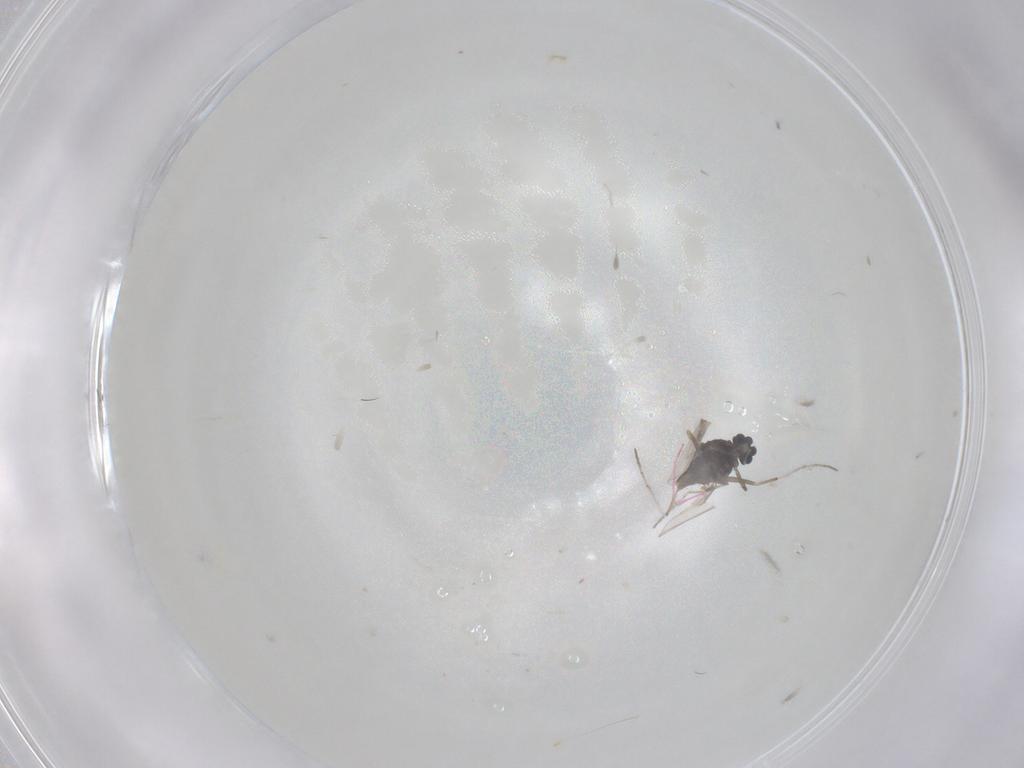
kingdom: Animalia
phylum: Arthropoda
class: Insecta
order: Diptera
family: Chironomidae
